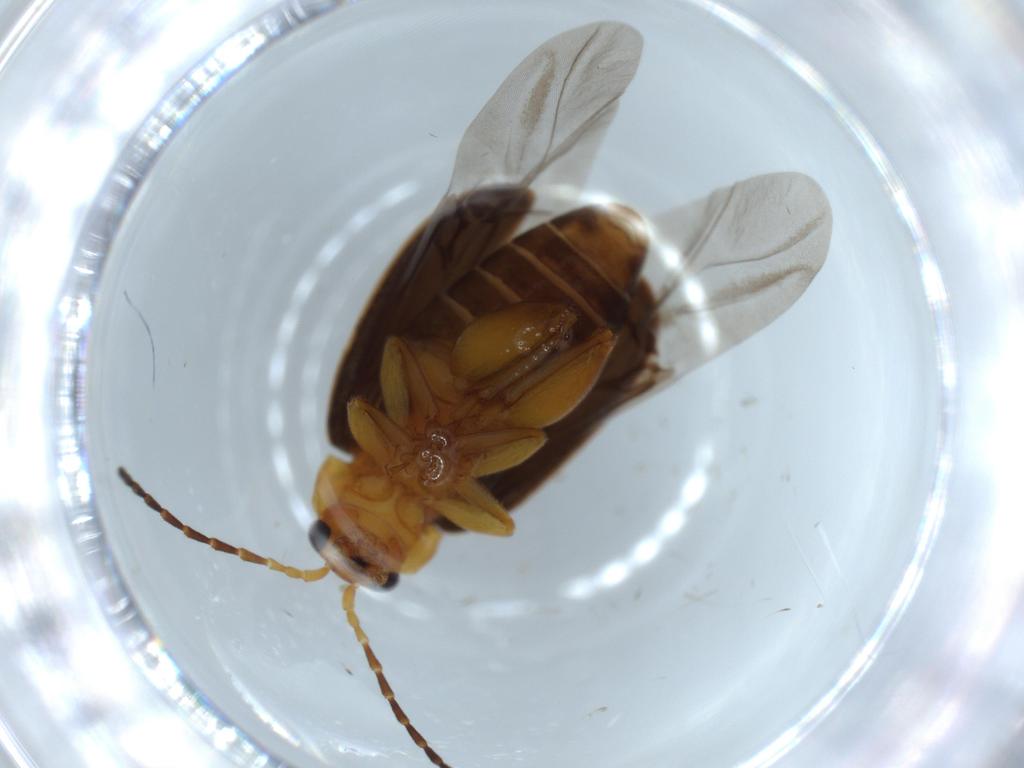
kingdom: Animalia
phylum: Arthropoda
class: Insecta
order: Coleoptera
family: Chrysomelidae
